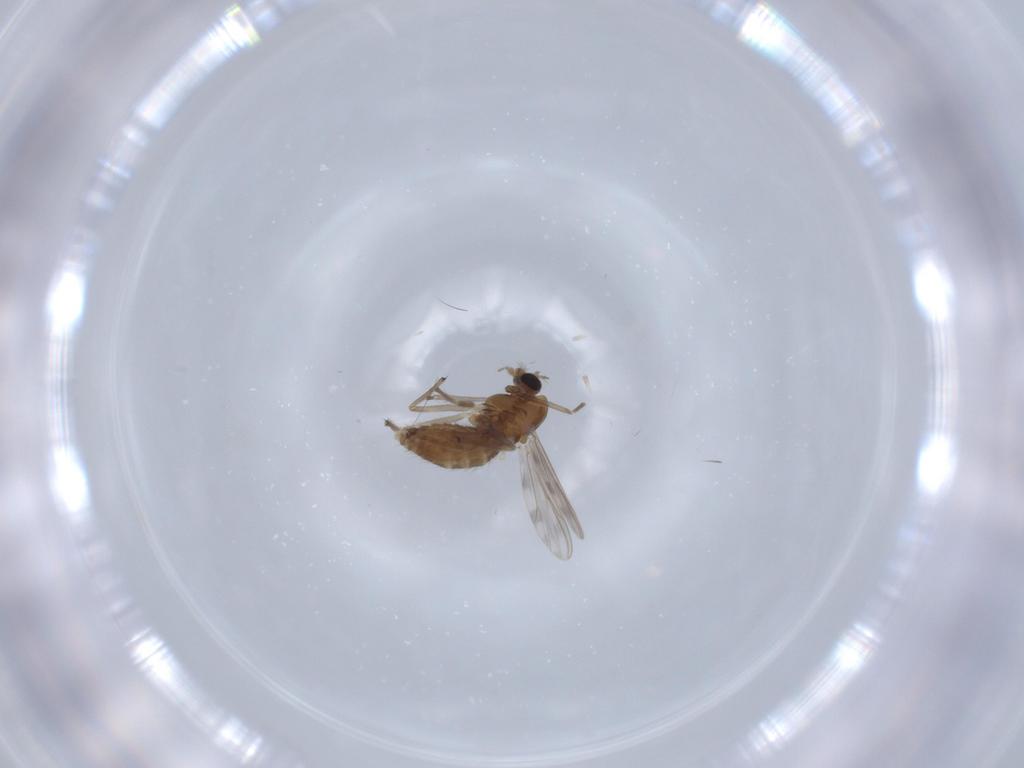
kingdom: Animalia
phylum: Arthropoda
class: Insecta
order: Diptera
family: Chironomidae
